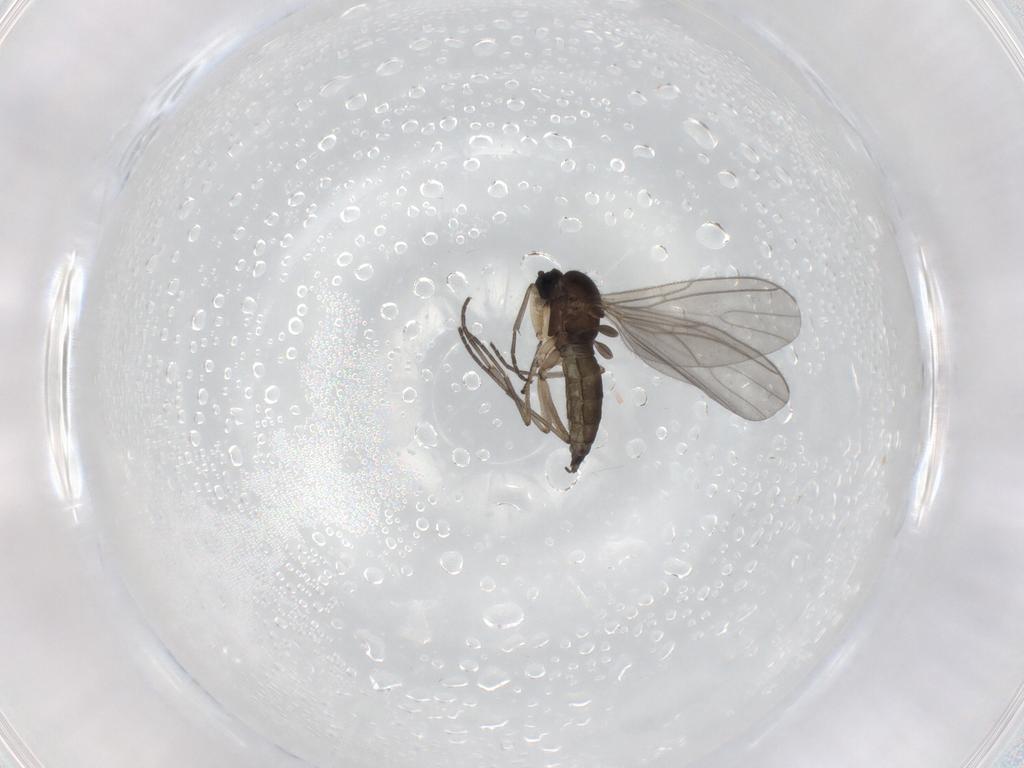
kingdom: Animalia
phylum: Arthropoda
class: Insecta
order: Diptera
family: Sciaridae
